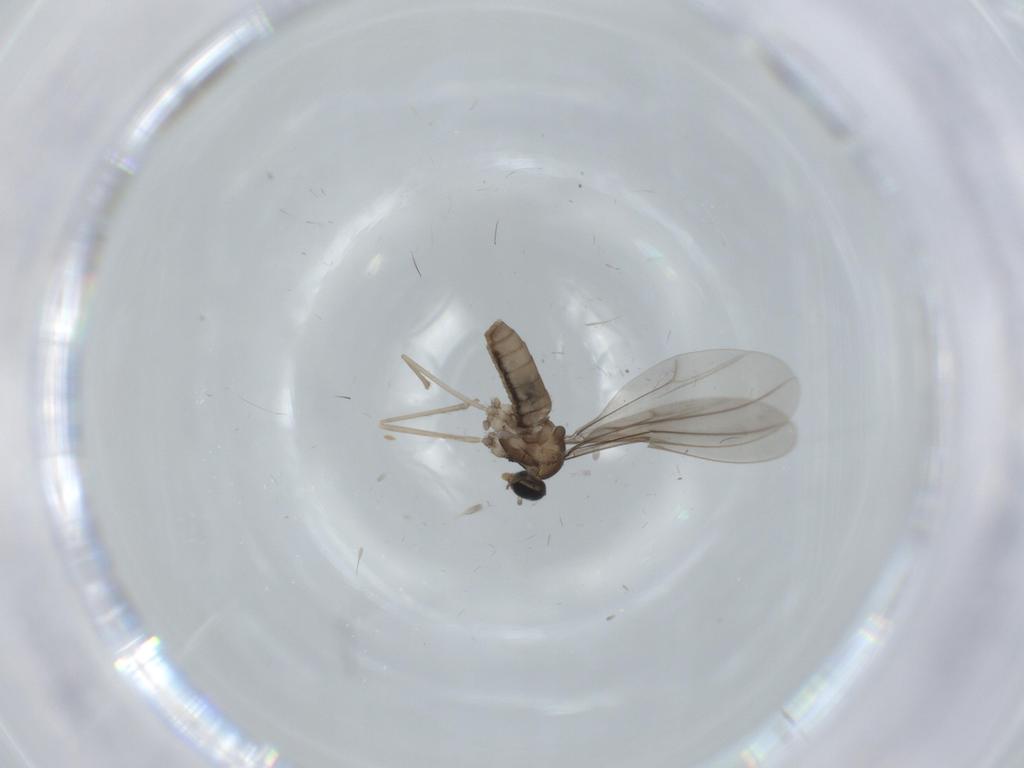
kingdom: Animalia
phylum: Arthropoda
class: Insecta
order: Diptera
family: Cecidomyiidae
